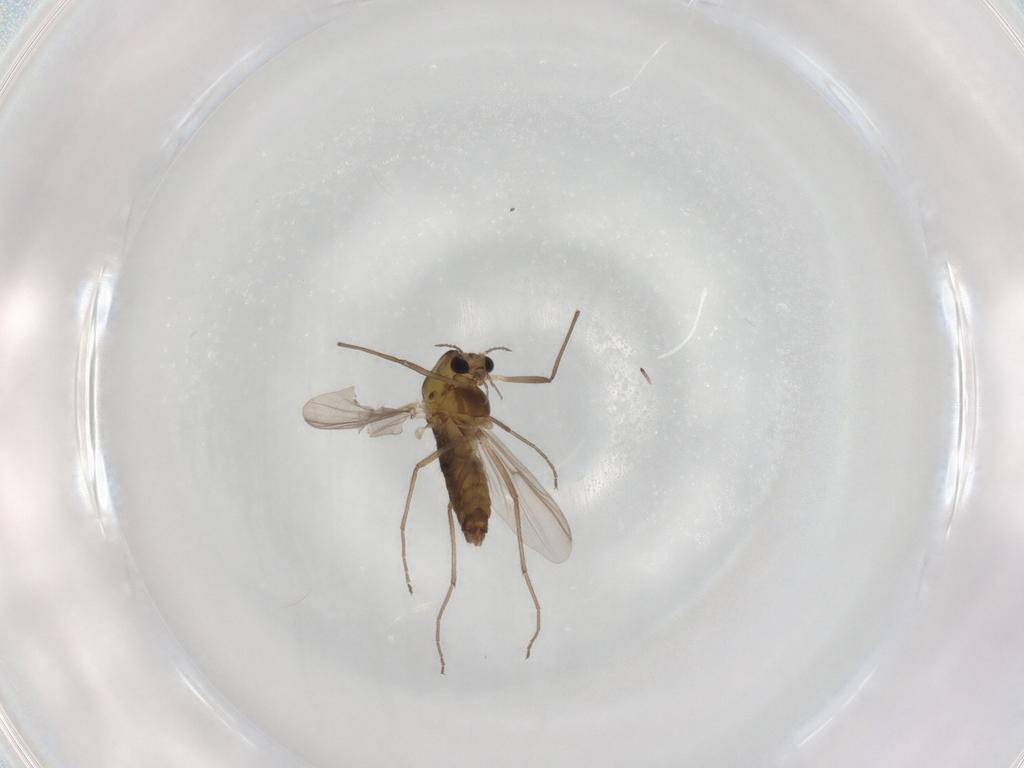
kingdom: Animalia
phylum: Arthropoda
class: Insecta
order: Diptera
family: Chironomidae
